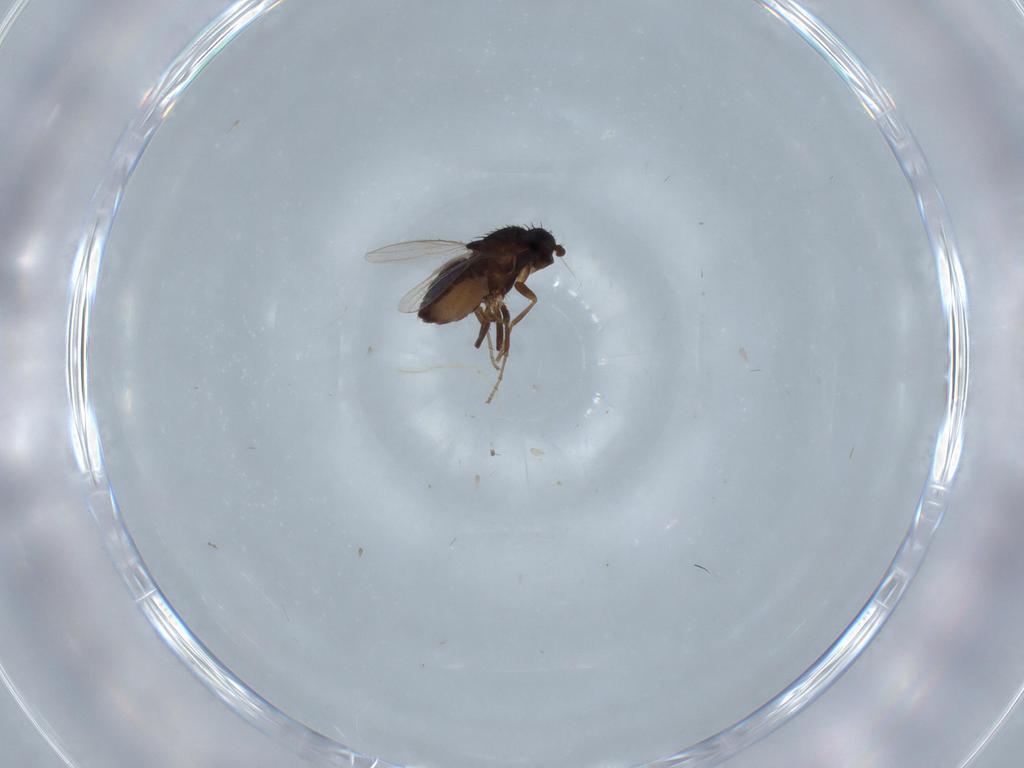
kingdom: Animalia
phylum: Arthropoda
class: Insecta
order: Diptera
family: Sphaeroceridae
